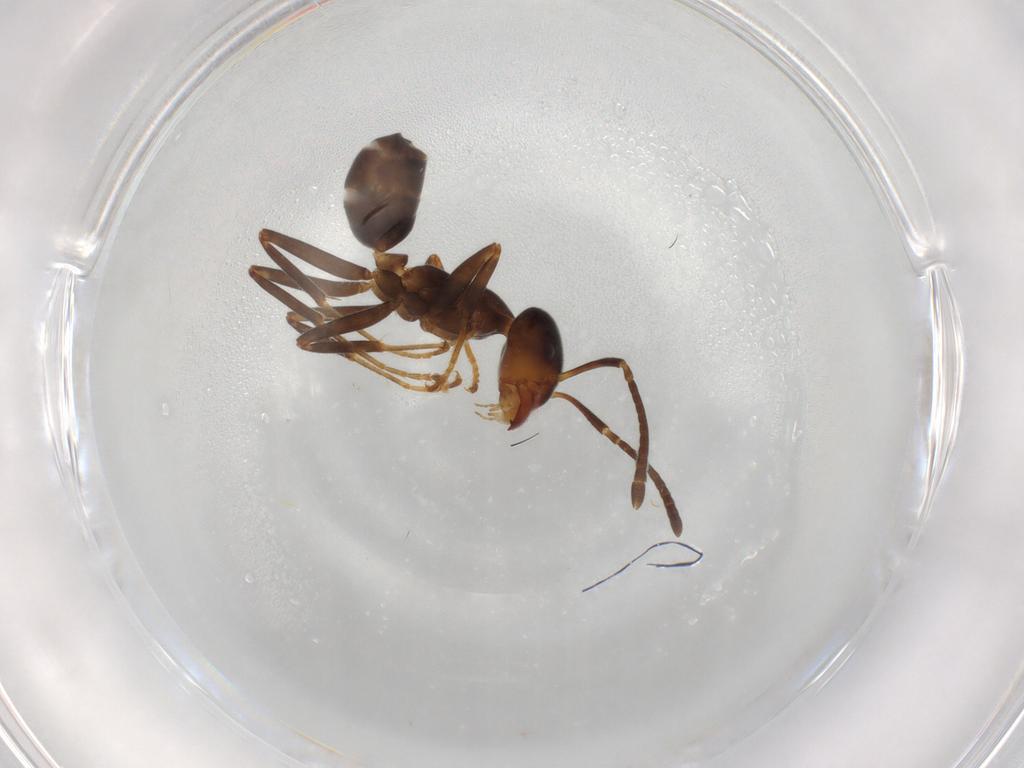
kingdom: Animalia
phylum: Arthropoda
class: Insecta
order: Hymenoptera
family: Formicidae
